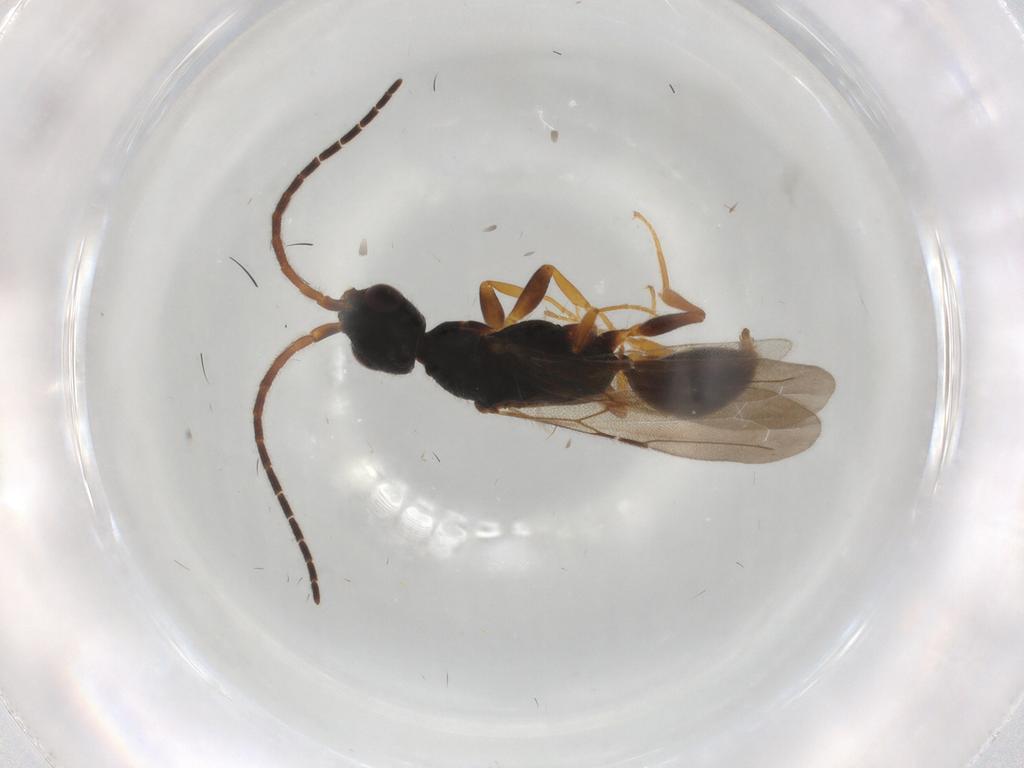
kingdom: Animalia
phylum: Arthropoda
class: Insecta
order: Hymenoptera
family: Bethylidae
